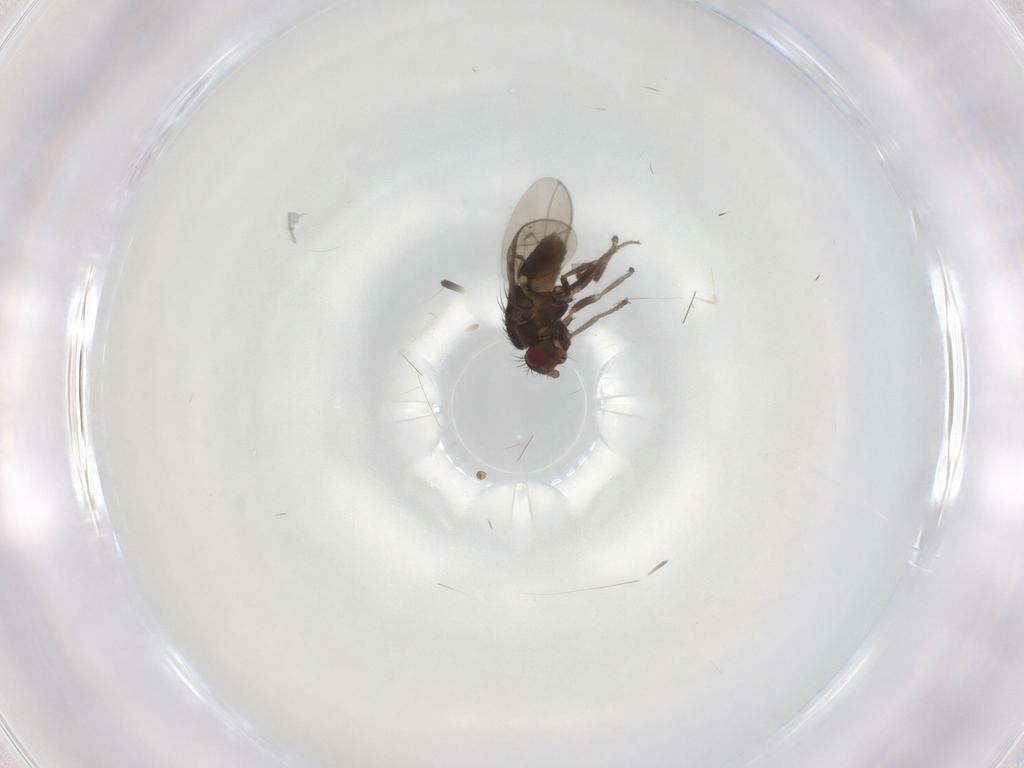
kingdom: Animalia
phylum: Arthropoda
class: Insecta
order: Diptera
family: Sphaeroceridae
